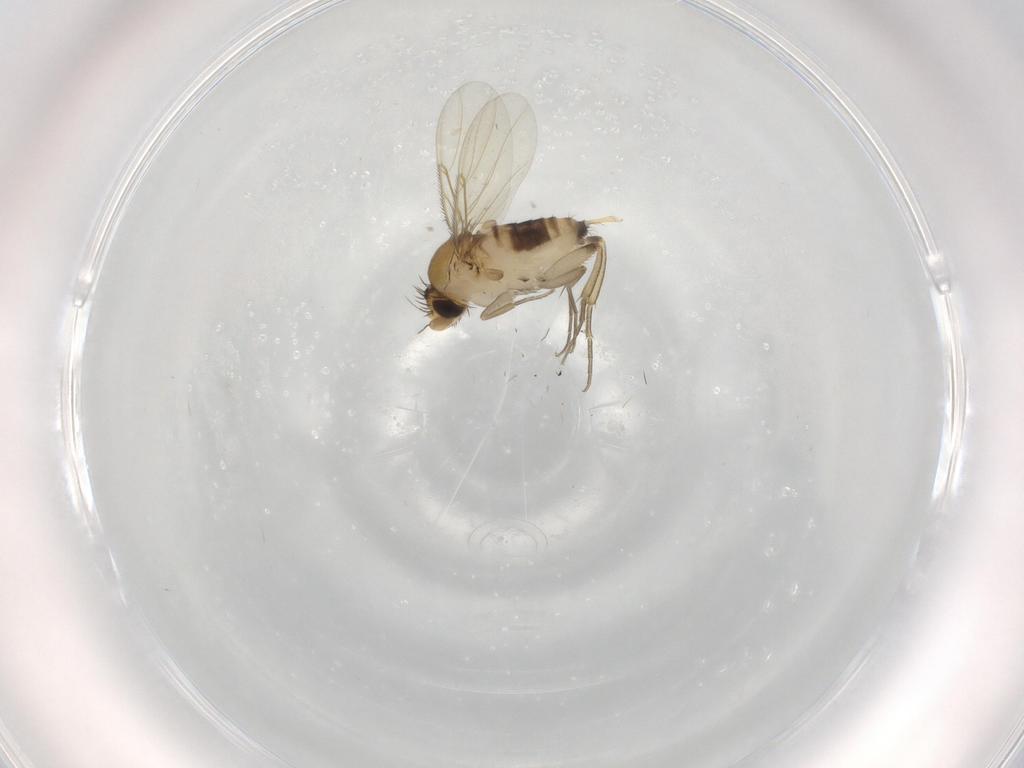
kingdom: Animalia
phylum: Arthropoda
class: Insecta
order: Diptera
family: Phoridae
